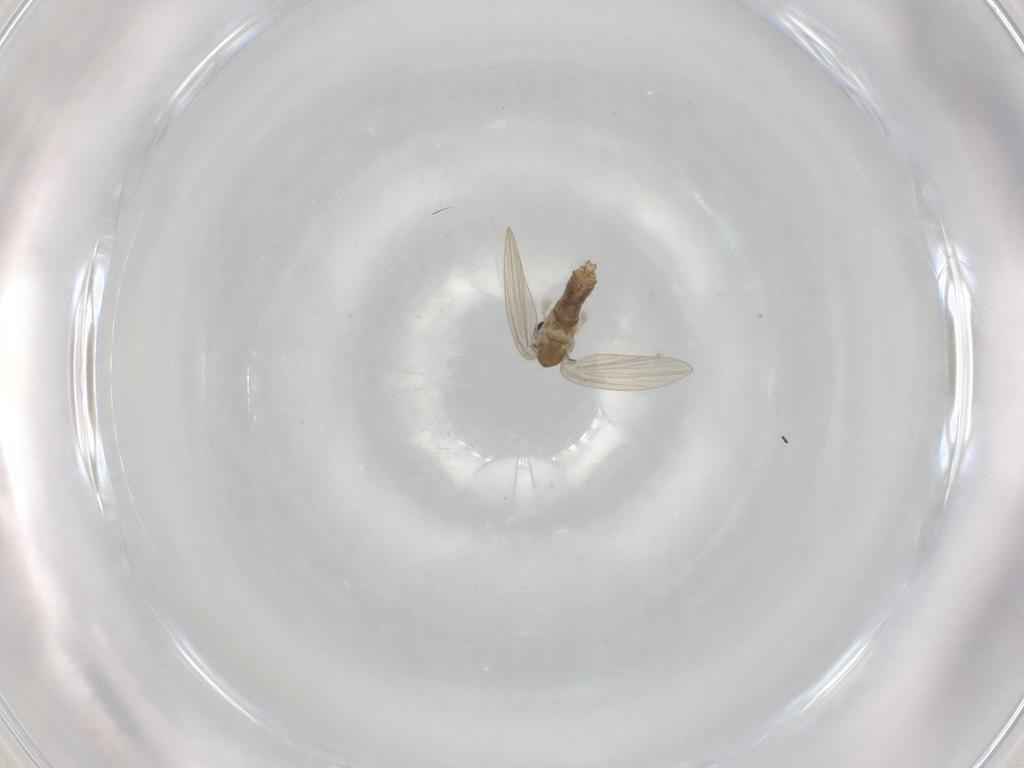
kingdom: Animalia
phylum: Arthropoda
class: Insecta
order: Diptera
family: Psychodidae
